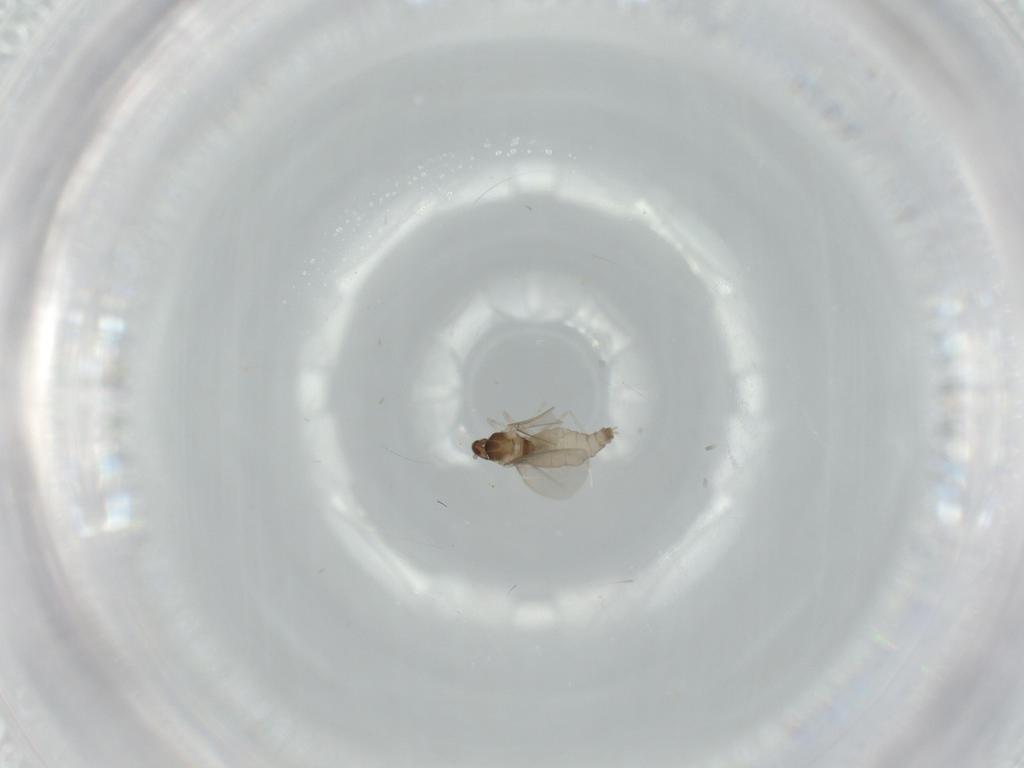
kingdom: Animalia
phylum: Arthropoda
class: Insecta
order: Diptera
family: Cecidomyiidae
